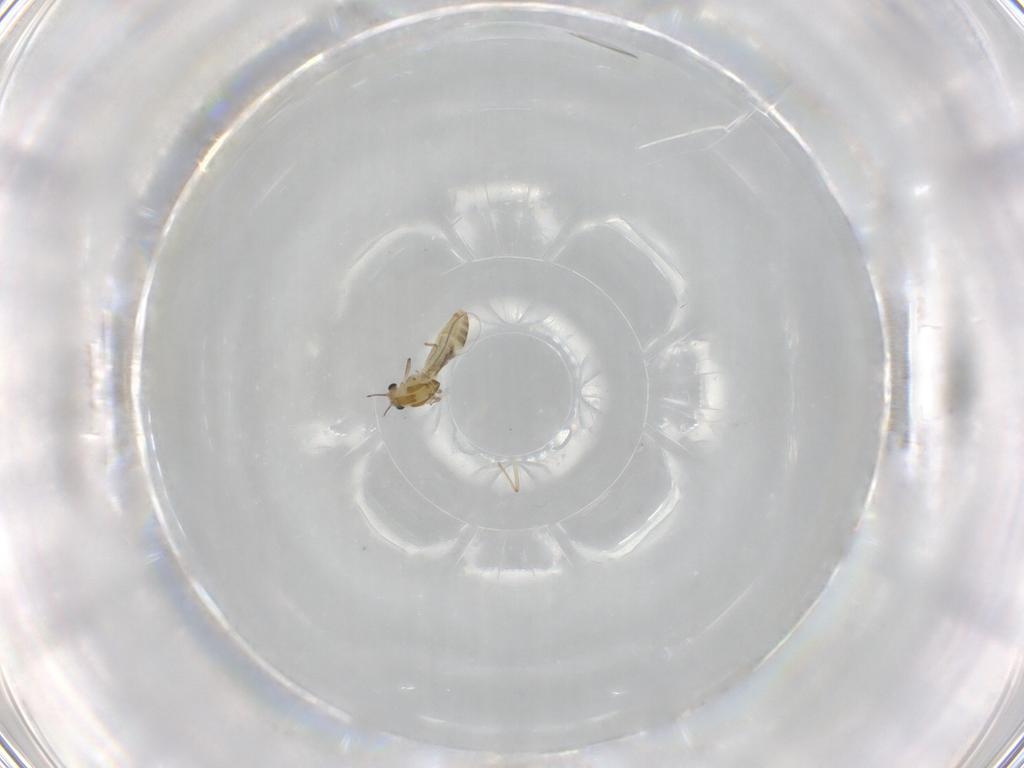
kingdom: Animalia
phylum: Arthropoda
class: Insecta
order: Diptera
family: Chironomidae
